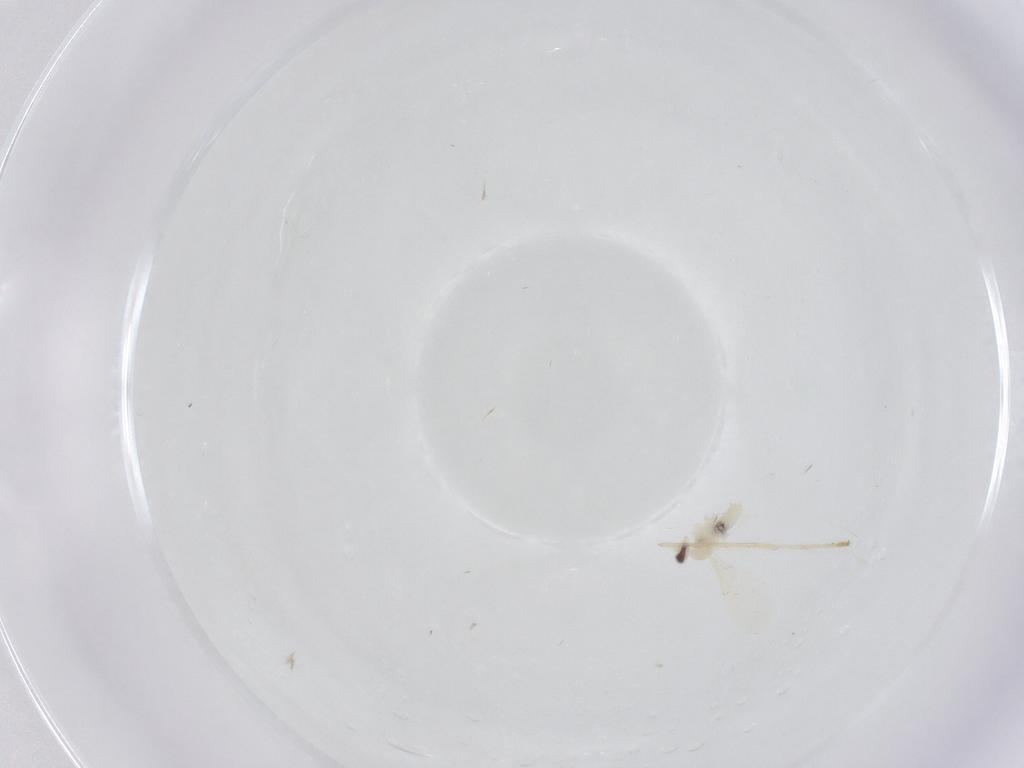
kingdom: Animalia
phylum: Arthropoda
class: Insecta
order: Diptera
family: Cecidomyiidae
